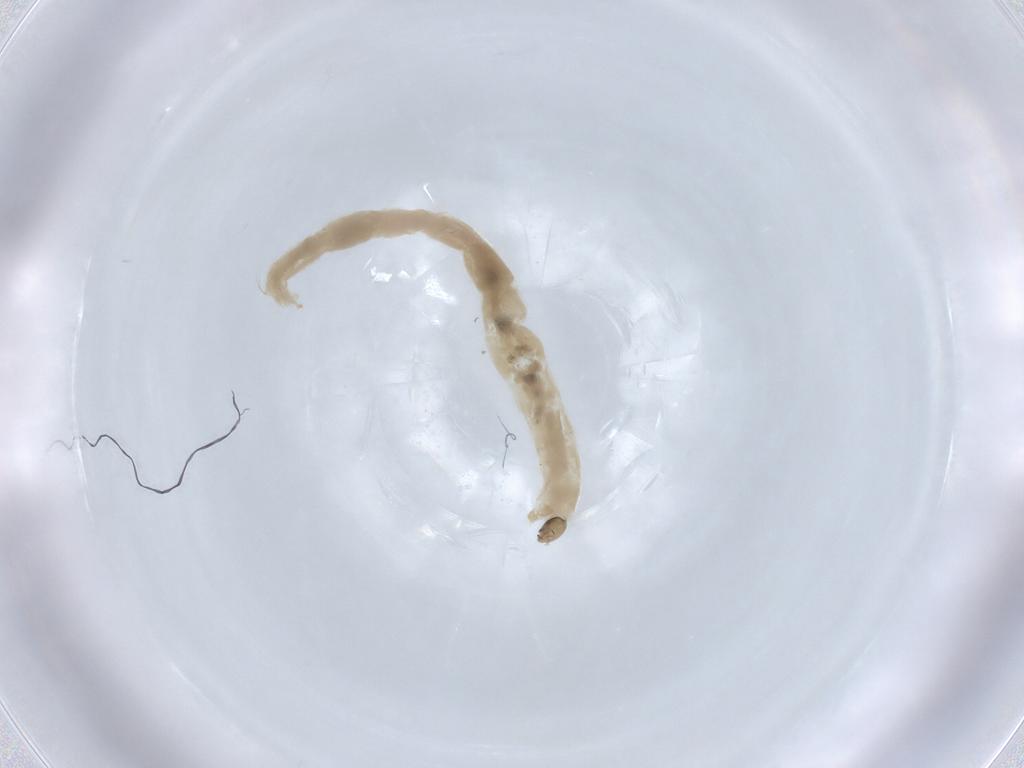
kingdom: Animalia
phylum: Arthropoda
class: Insecta
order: Diptera
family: Chironomidae
